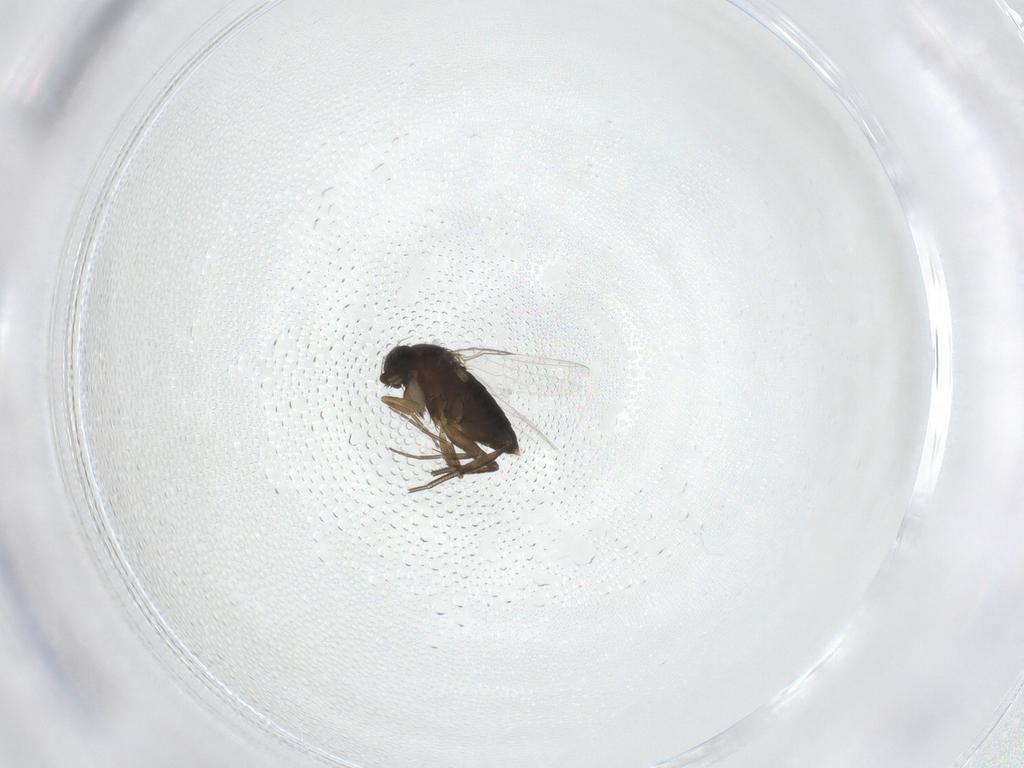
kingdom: Animalia
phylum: Arthropoda
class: Insecta
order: Diptera
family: Phoridae
